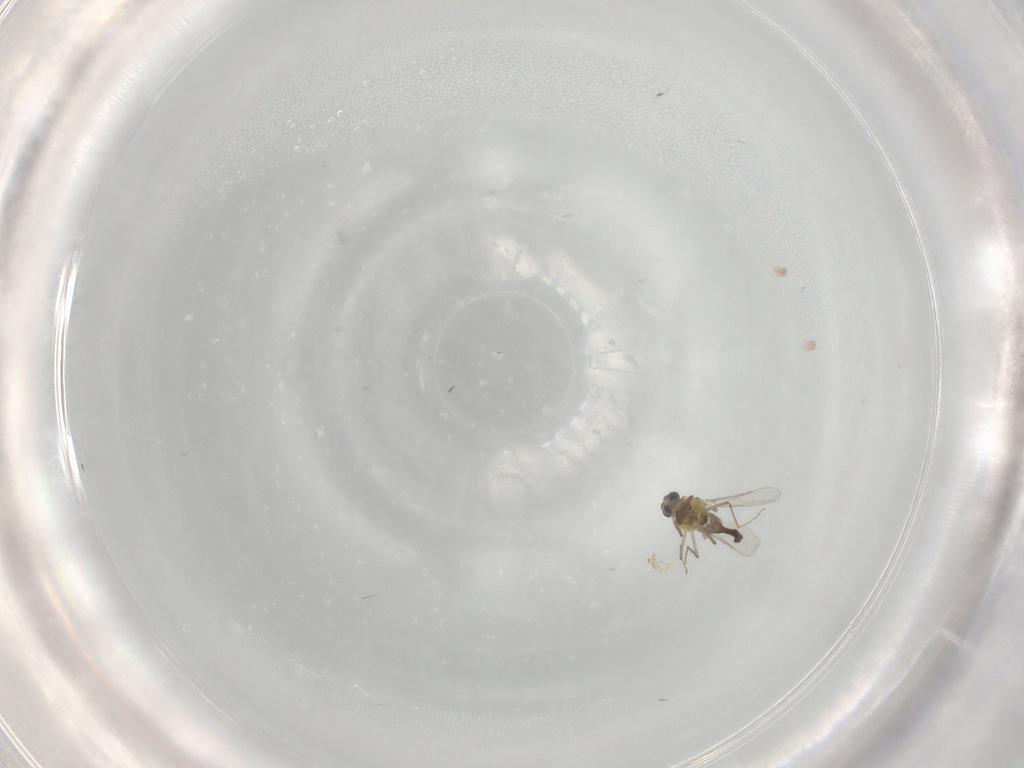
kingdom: Animalia
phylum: Arthropoda
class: Insecta
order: Diptera
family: Chironomidae
